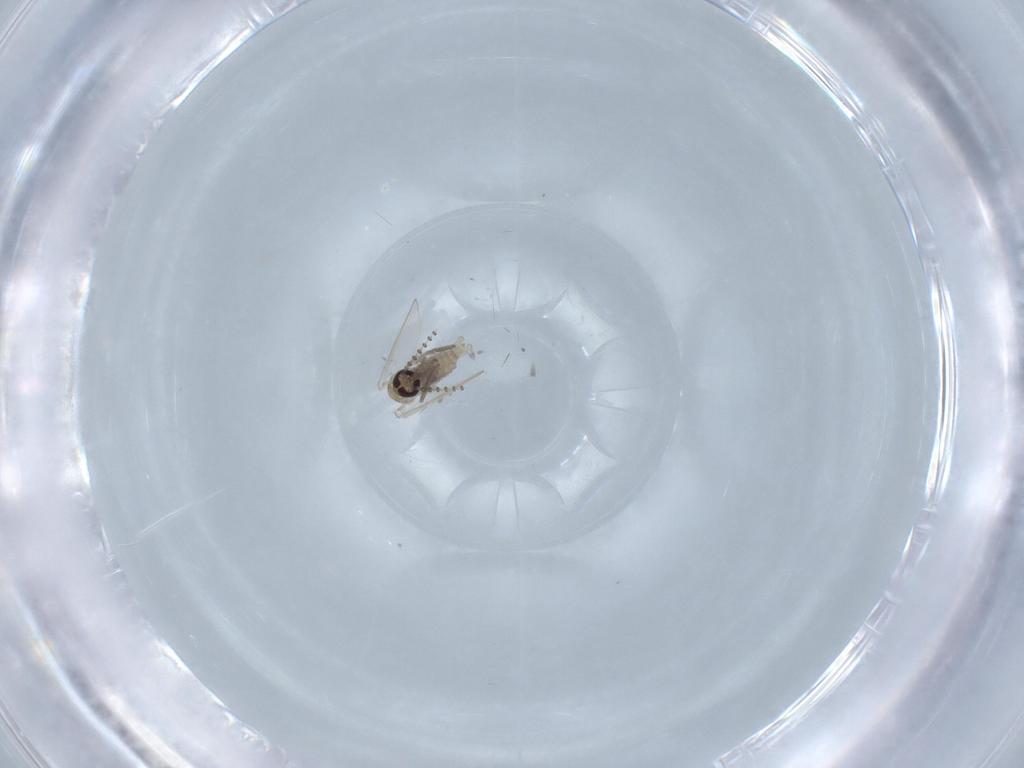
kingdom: Animalia
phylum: Arthropoda
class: Insecta
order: Diptera
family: Psychodidae
